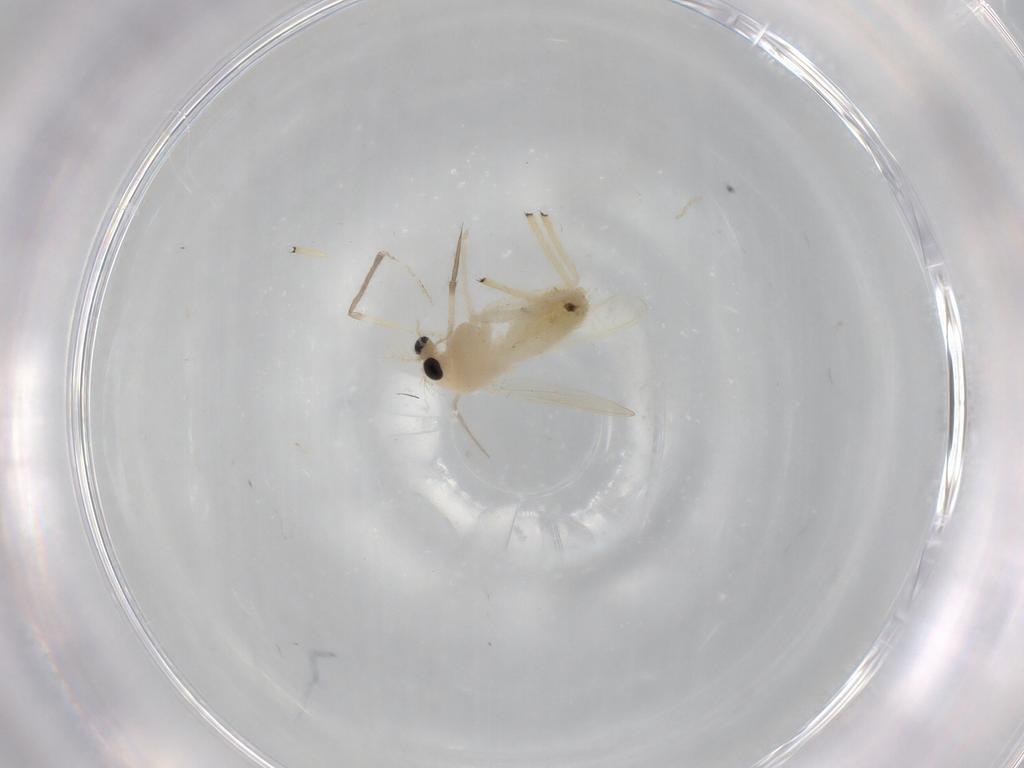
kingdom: Animalia
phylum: Arthropoda
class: Insecta
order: Diptera
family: Chironomidae
